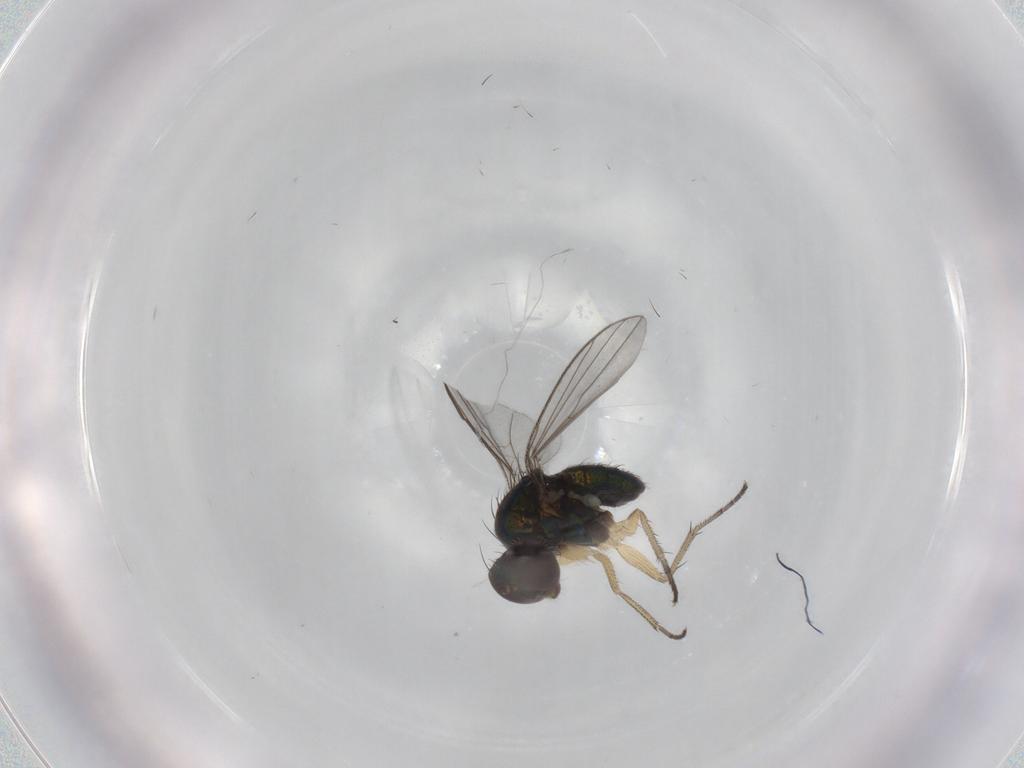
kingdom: Animalia
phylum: Arthropoda
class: Insecta
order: Diptera
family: Dolichopodidae
